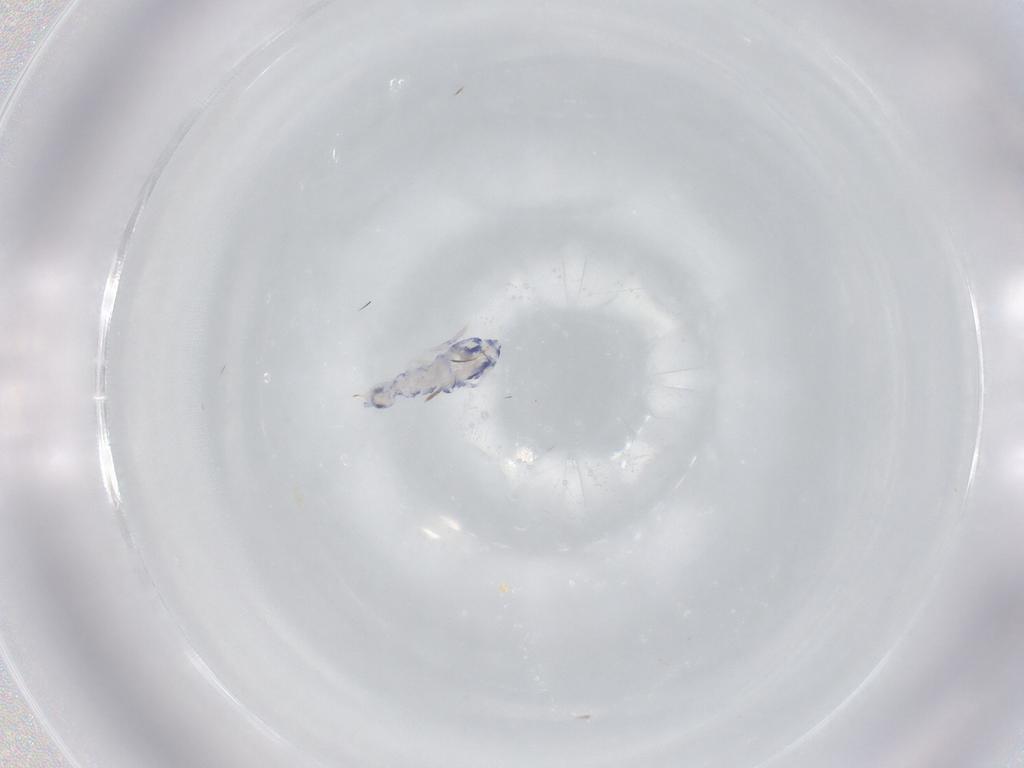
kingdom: Animalia
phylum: Arthropoda
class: Collembola
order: Entomobryomorpha
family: Entomobryidae
